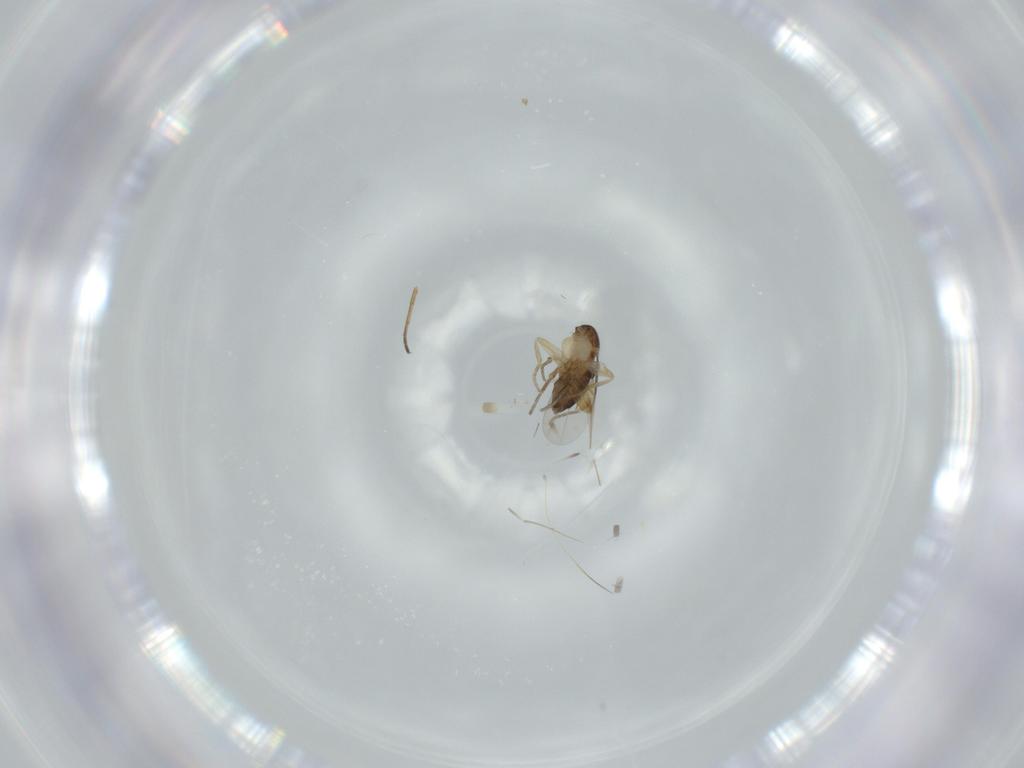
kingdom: Animalia
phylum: Arthropoda
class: Insecta
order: Diptera
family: Phoridae
